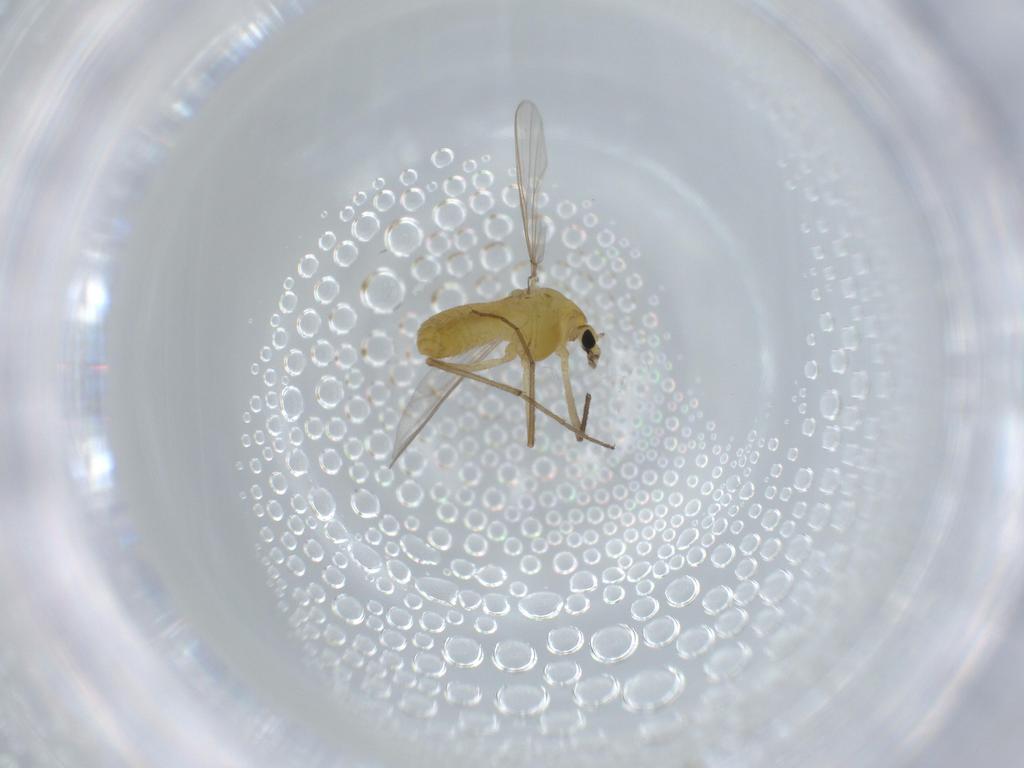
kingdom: Animalia
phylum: Arthropoda
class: Insecta
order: Diptera
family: Chironomidae
